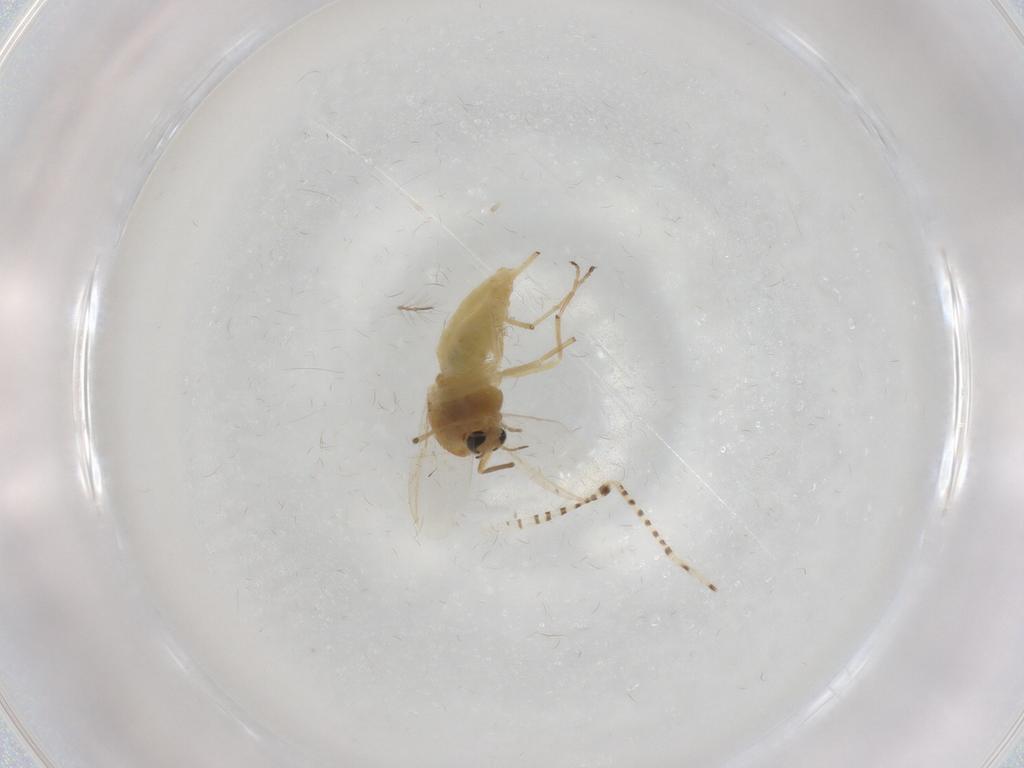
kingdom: Animalia
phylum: Arthropoda
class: Insecta
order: Diptera
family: Chironomidae
